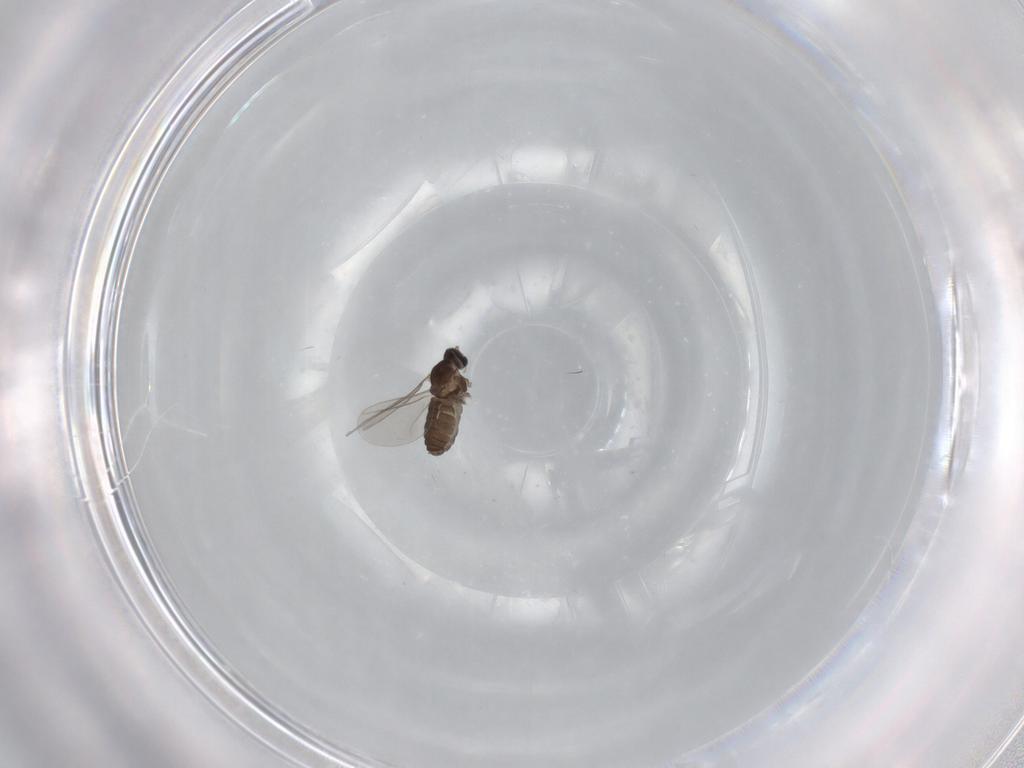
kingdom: Animalia
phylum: Arthropoda
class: Insecta
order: Diptera
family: Cecidomyiidae
